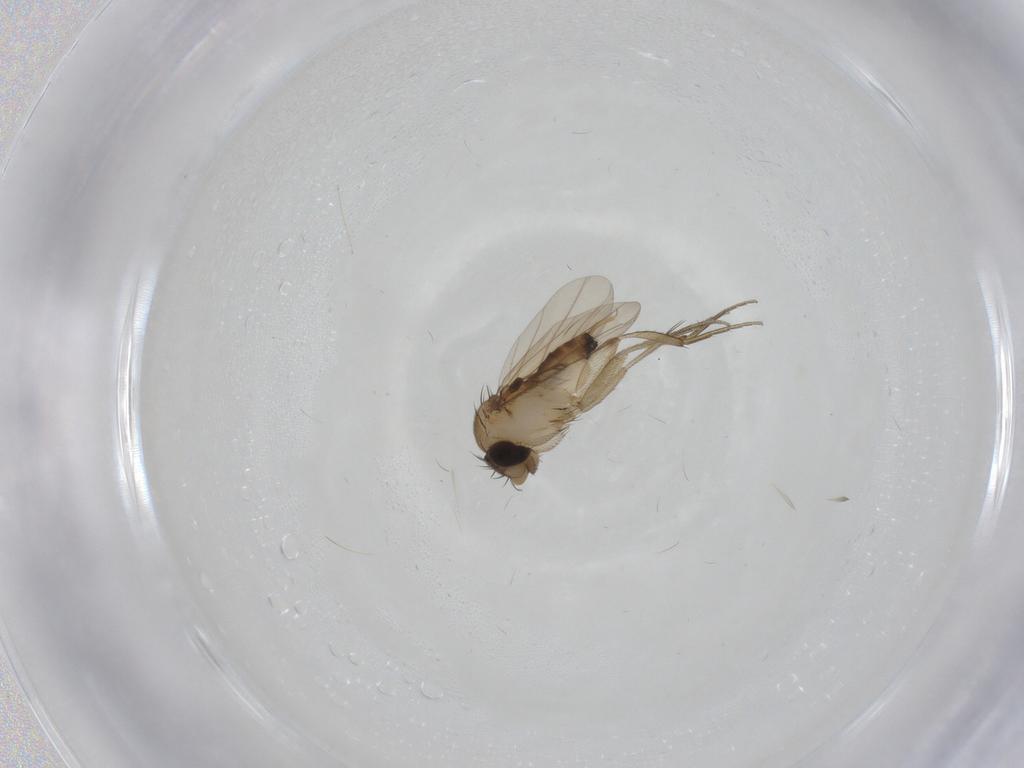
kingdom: Animalia
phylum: Arthropoda
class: Insecta
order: Diptera
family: Phoridae
